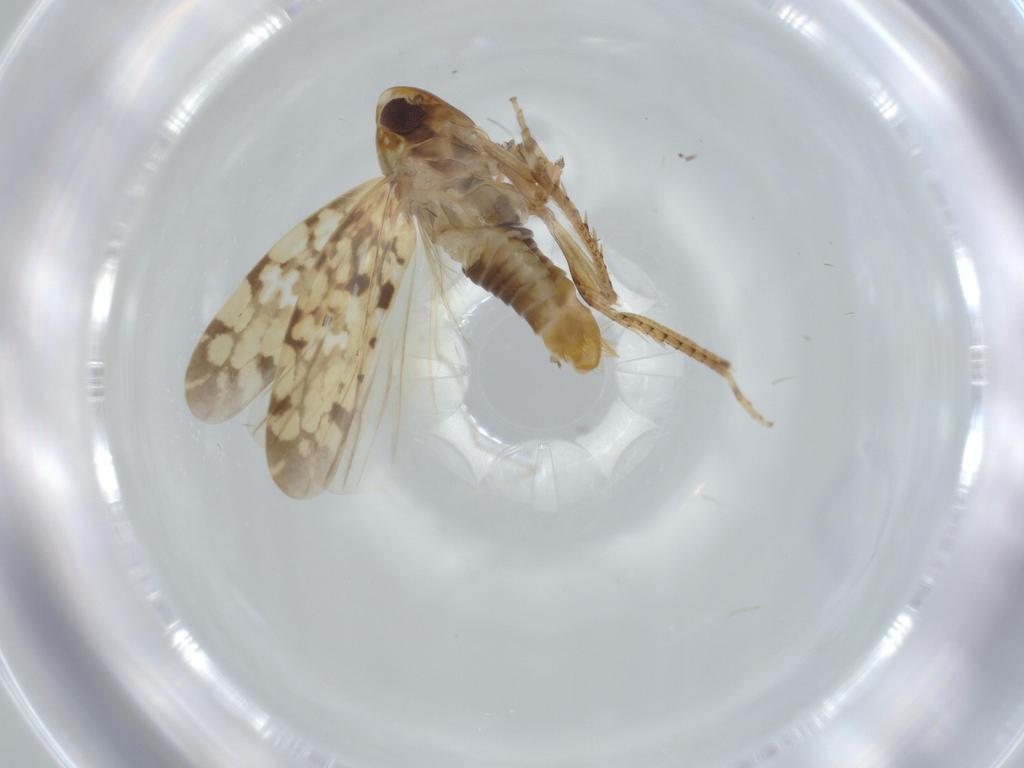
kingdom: Animalia
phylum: Arthropoda
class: Insecta
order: Hemiptera
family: Cicadellidae
